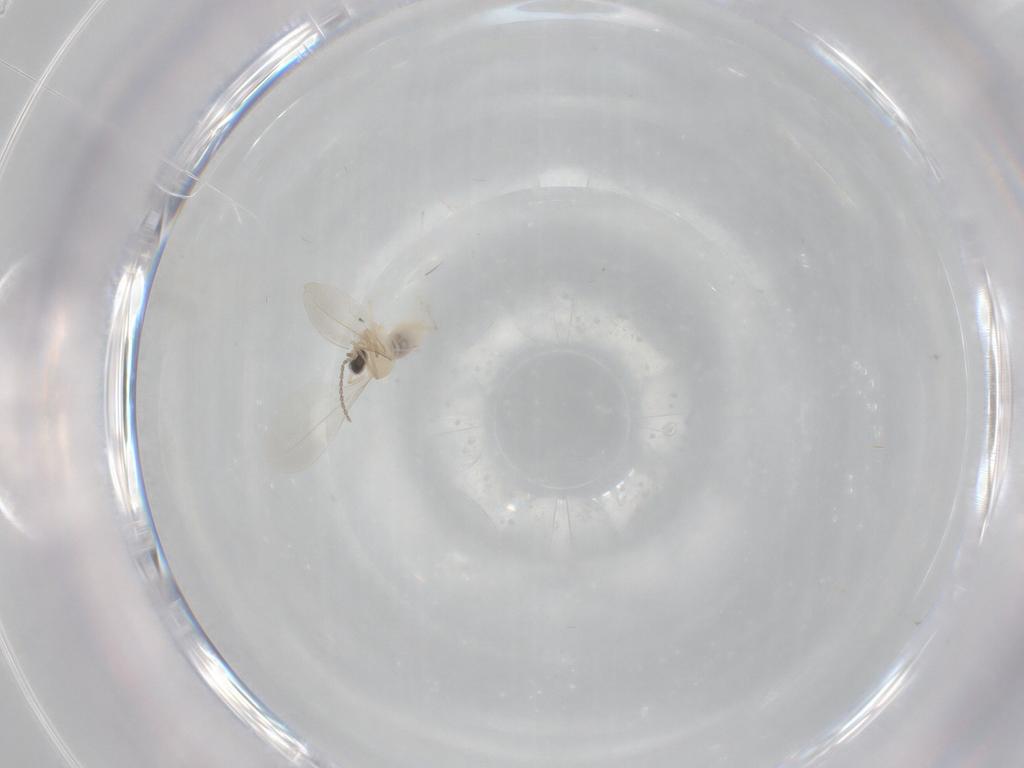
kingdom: Animalia
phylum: Arthropoda
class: Insecta
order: Diptera
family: Cecidomyiidae
